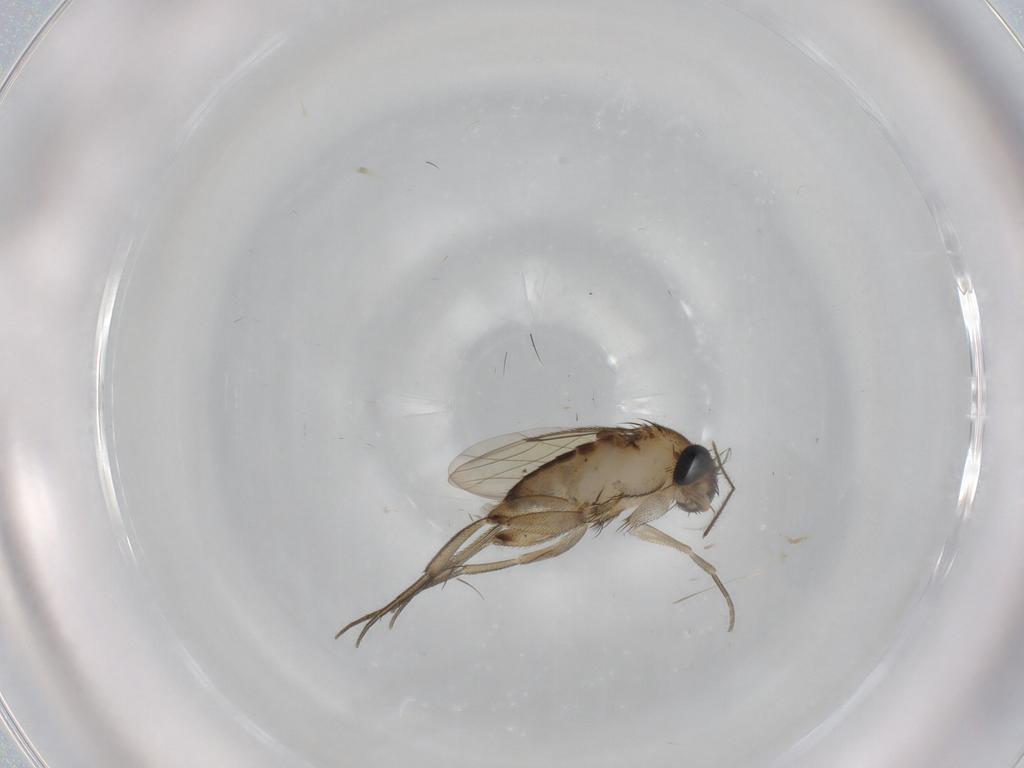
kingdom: Animalia
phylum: Arthropoda
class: Insecta
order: Diptera
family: Phoridae
